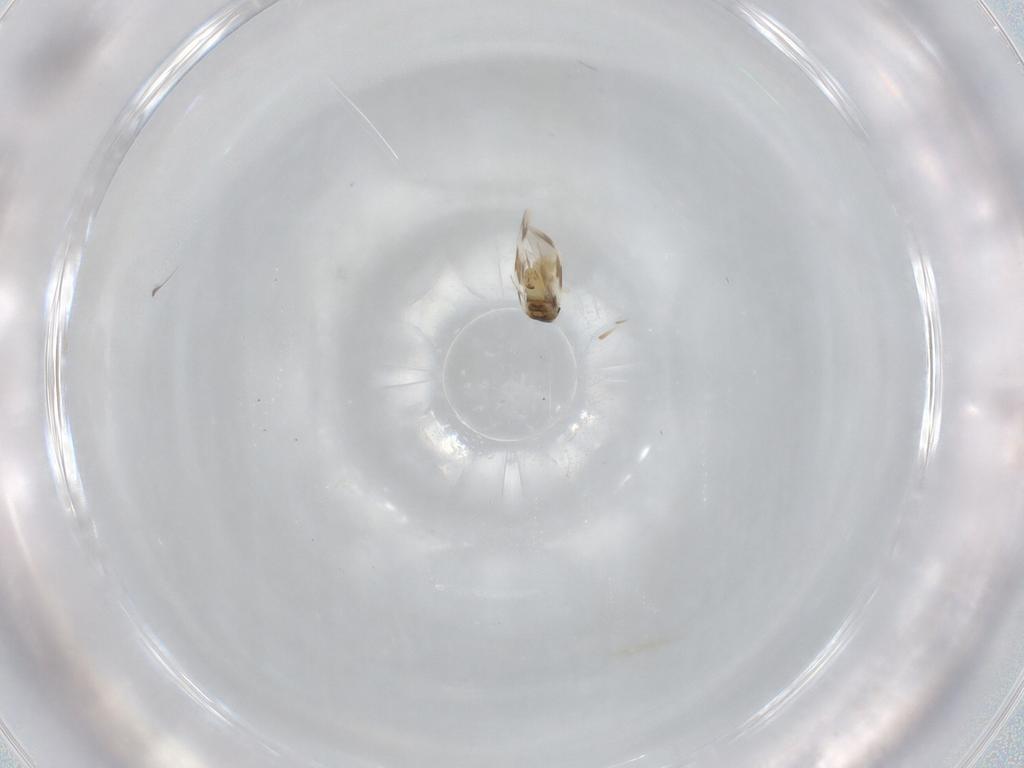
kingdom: Animalia
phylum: Arthropoda
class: Insecta
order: Hemiptera
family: Aleyrodidae
